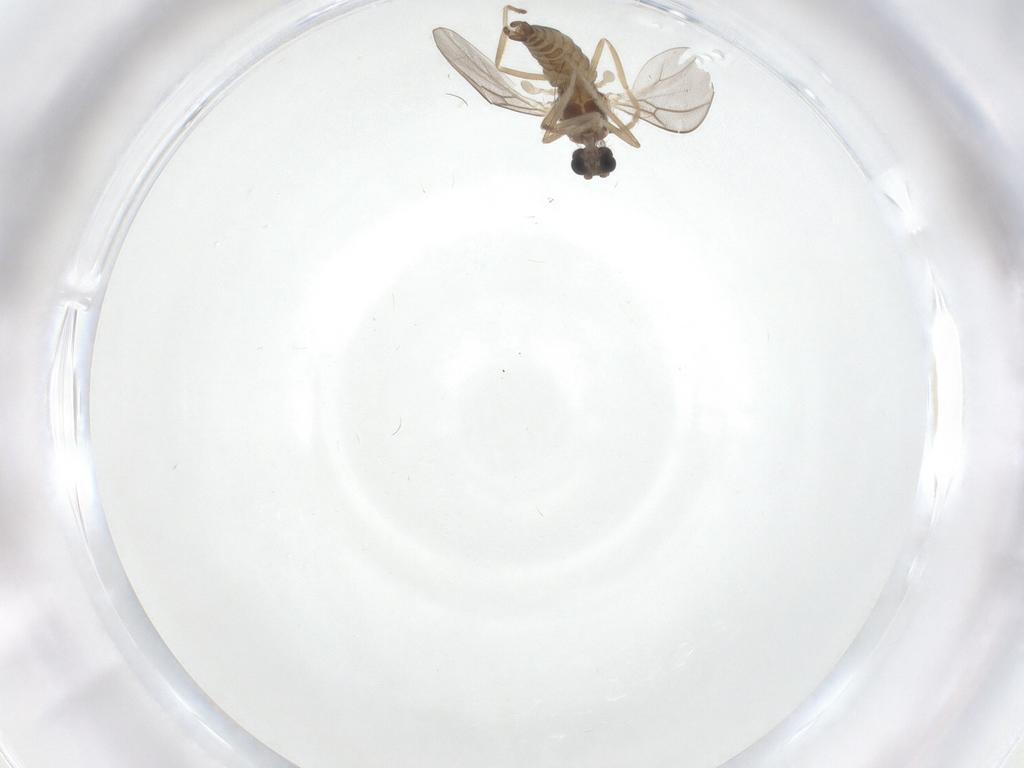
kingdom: Animalia
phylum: Arthropoda
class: Insecta
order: Diptera
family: Cecidomyiidae
